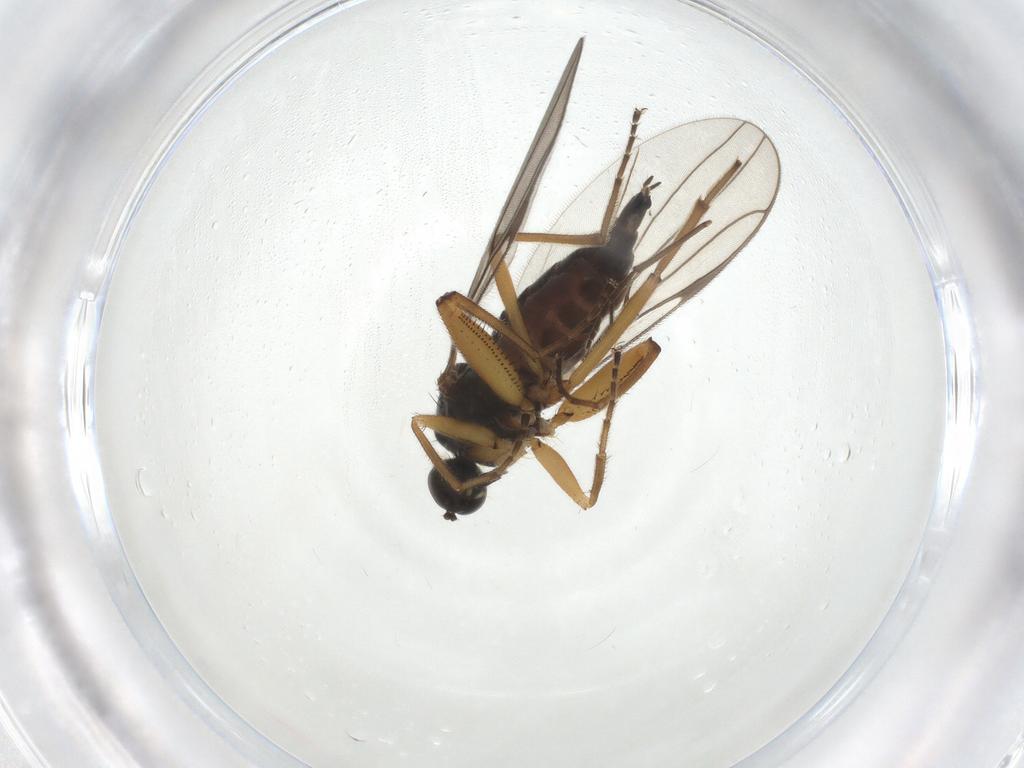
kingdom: Animalia
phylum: Arthropoda
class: Insecta
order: Diptera
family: Hybotidae
